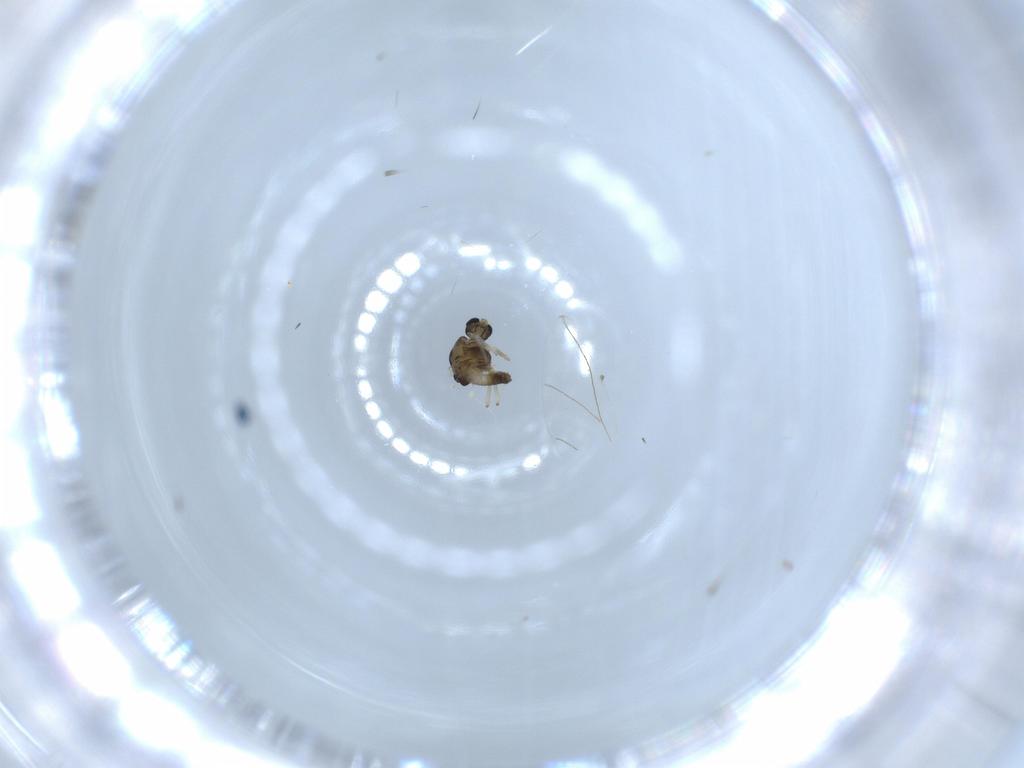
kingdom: Animalia
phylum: Arthropoda
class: Insecta
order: Diptera
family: Chironomidae
